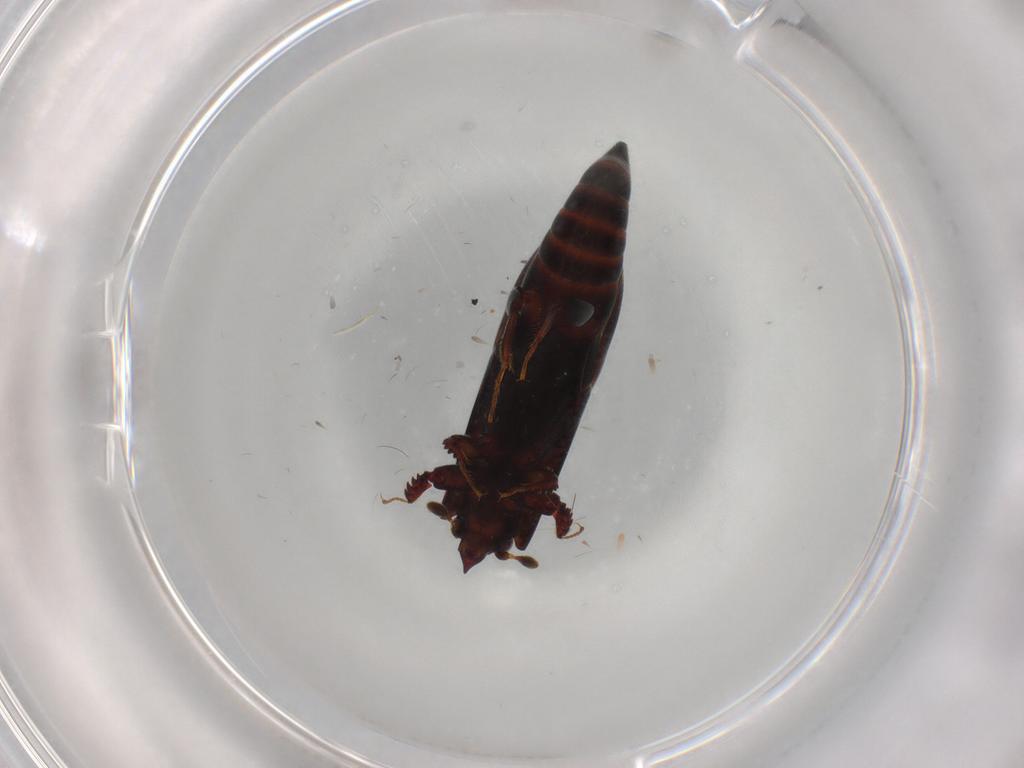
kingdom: Animalia
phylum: Arthropoda
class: Insecta
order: Coleoptera
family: Histeridae
